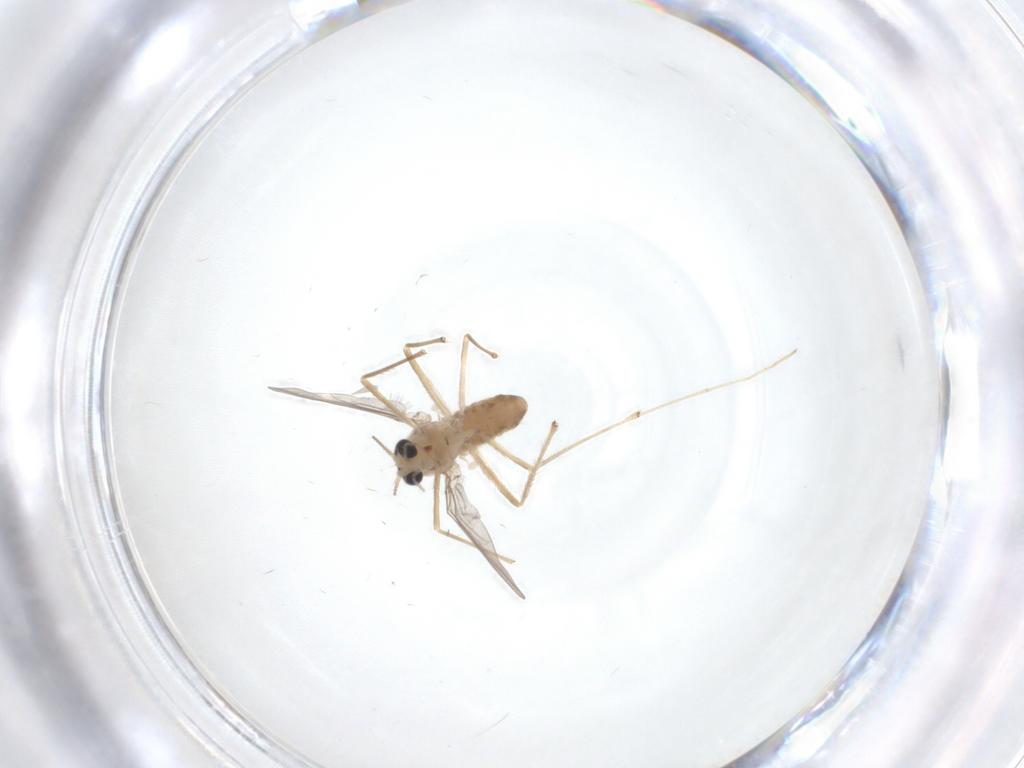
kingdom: Animalia
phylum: Arthropoda
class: Insecta
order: Diptera
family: Chironomidae
